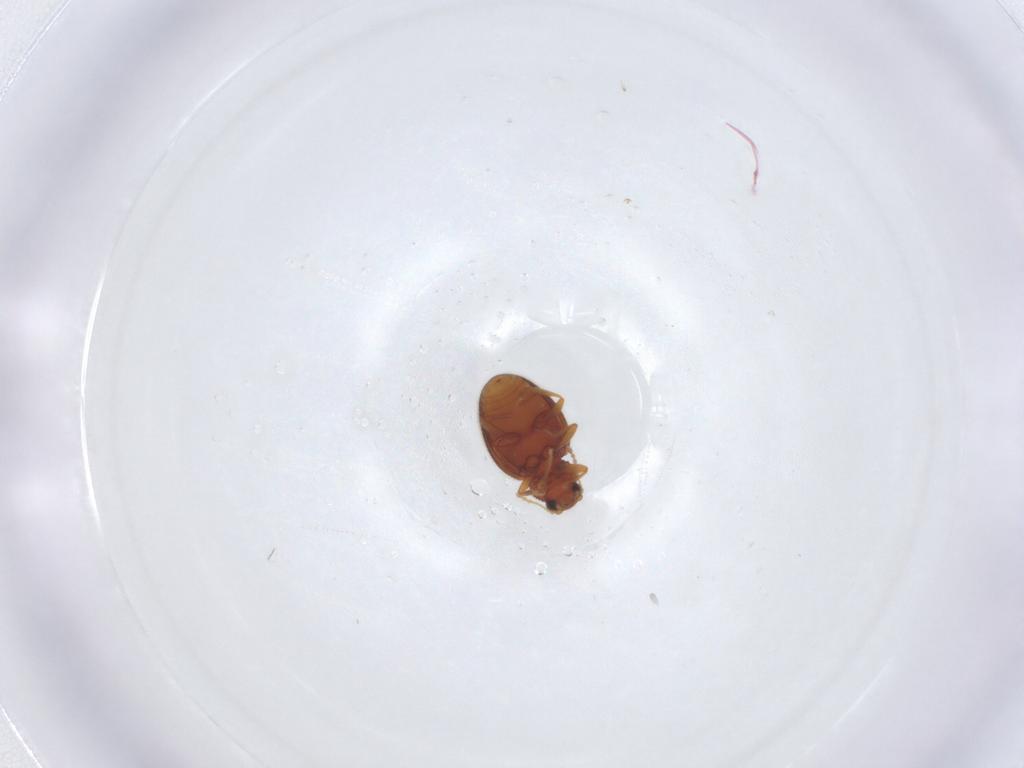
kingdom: Animalia
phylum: Arthropoda
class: Insecta
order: Coleoptera
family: Latridiidae
